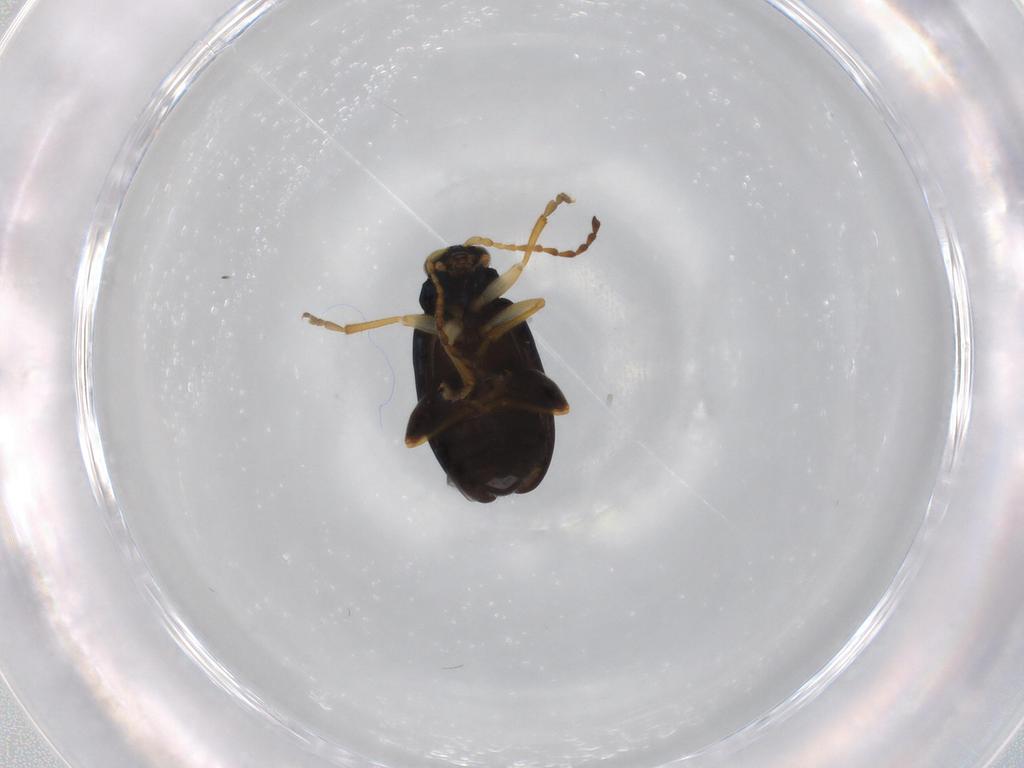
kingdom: Animalia
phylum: Arthropoda
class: Insecta
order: Coleoptera
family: Chrysomelidae
